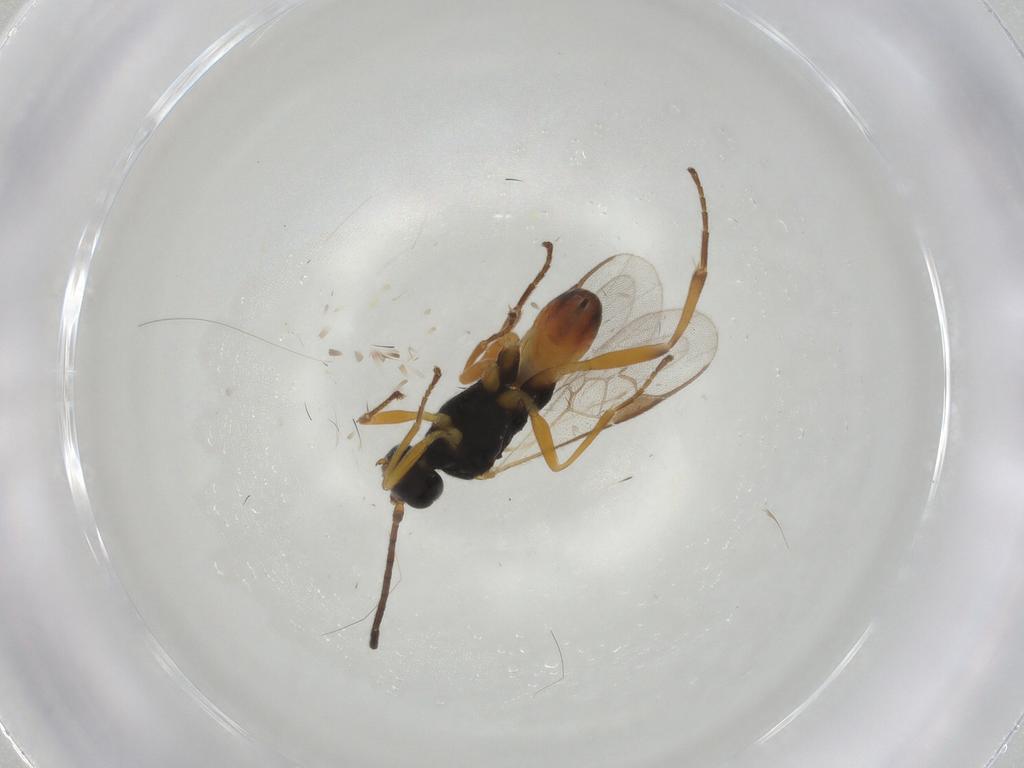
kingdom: Animalia
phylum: Arthropoda
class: Insecta
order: Hymenoptera
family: Braconidae
